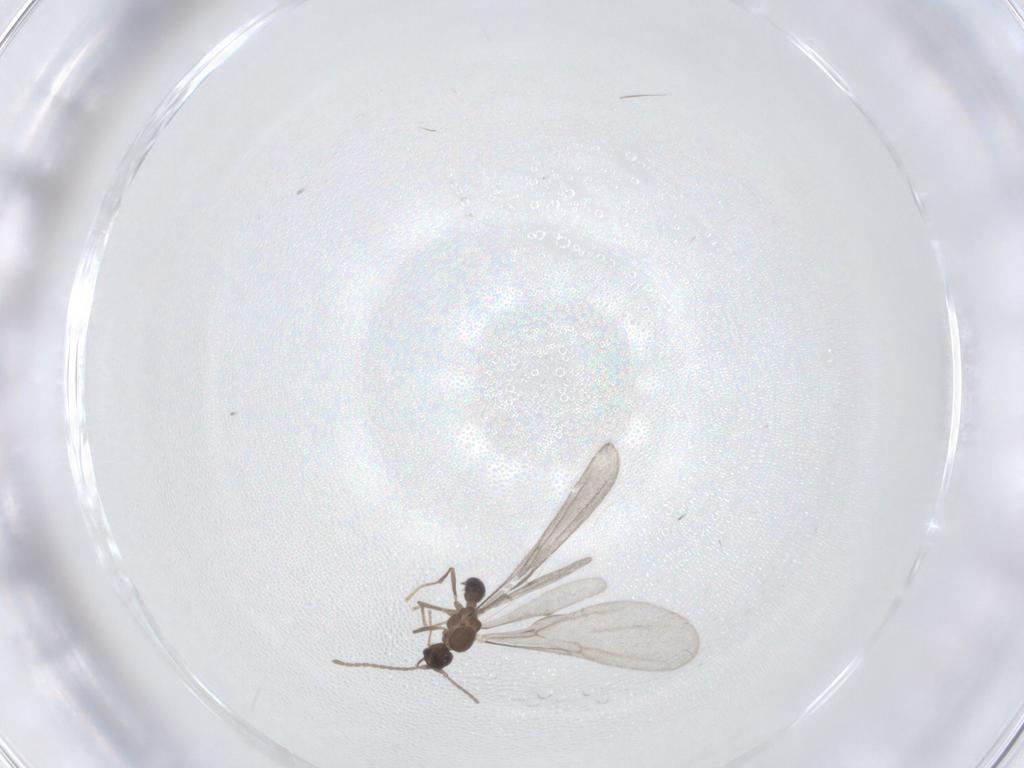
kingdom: Animalia
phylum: Arthropoda
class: Insecta
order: Hymenoptera
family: Formicidae
